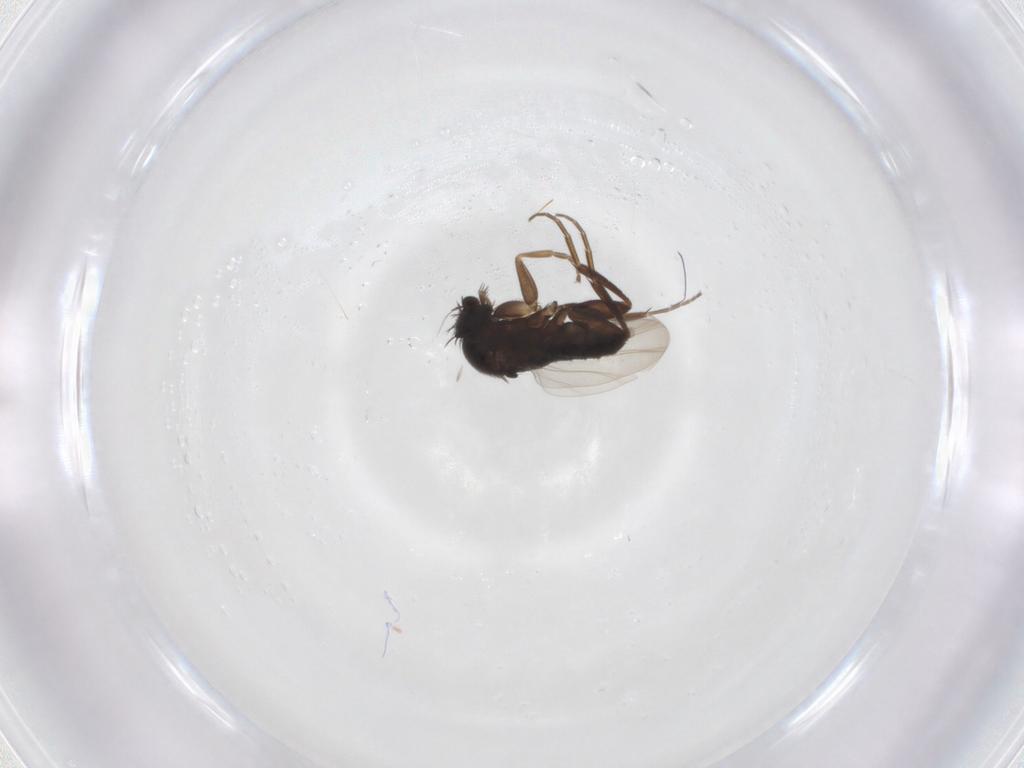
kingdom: Animalia
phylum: Arthropoda
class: Insecta
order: Diptera
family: Phoridae
